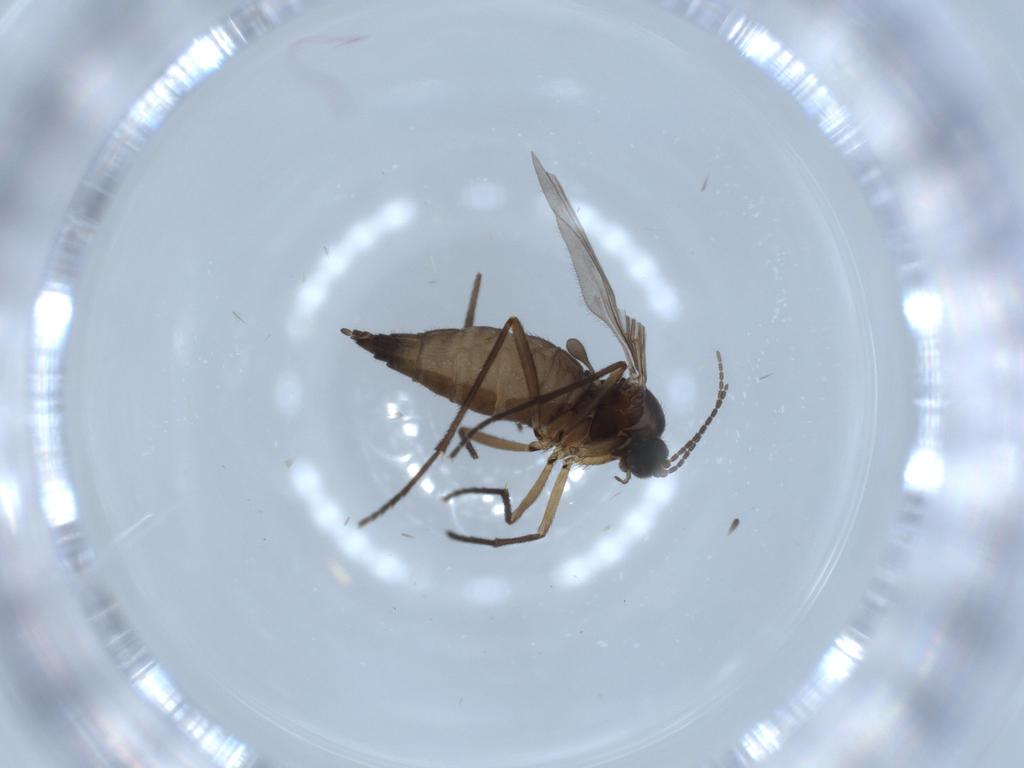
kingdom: Animalia
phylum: Arthropoda
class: Insecta
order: Diptera
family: Sciaridae
